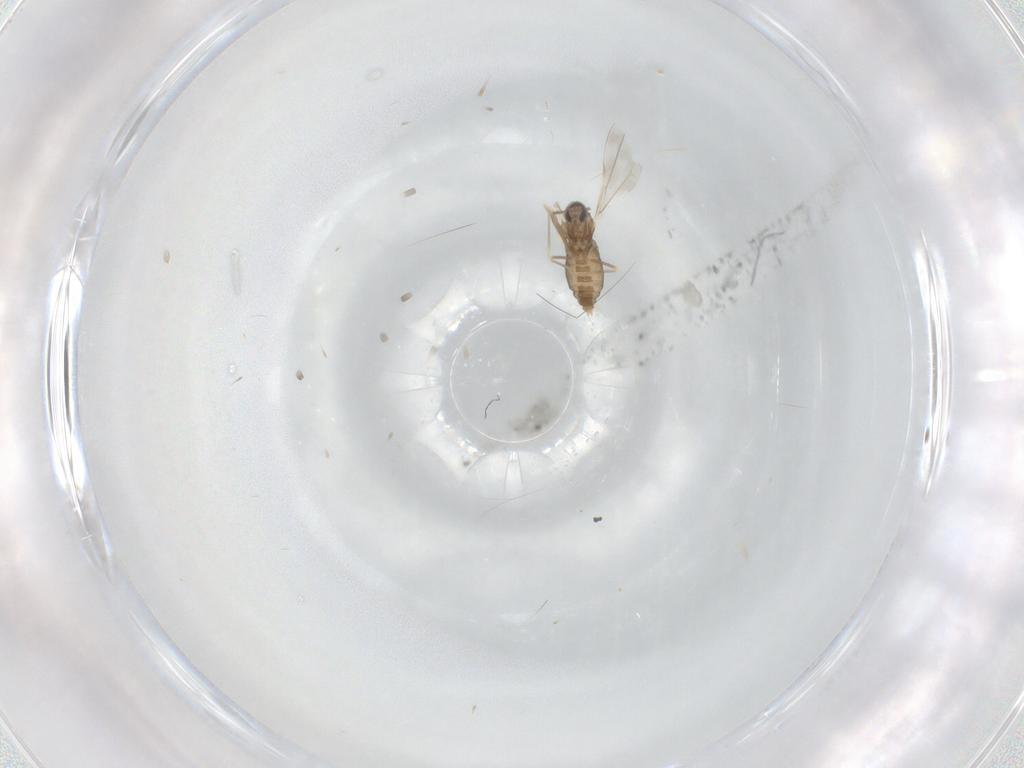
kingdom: Animalia
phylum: Arthropoda
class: Insecta
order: Diptera
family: Cecidomyiidae
